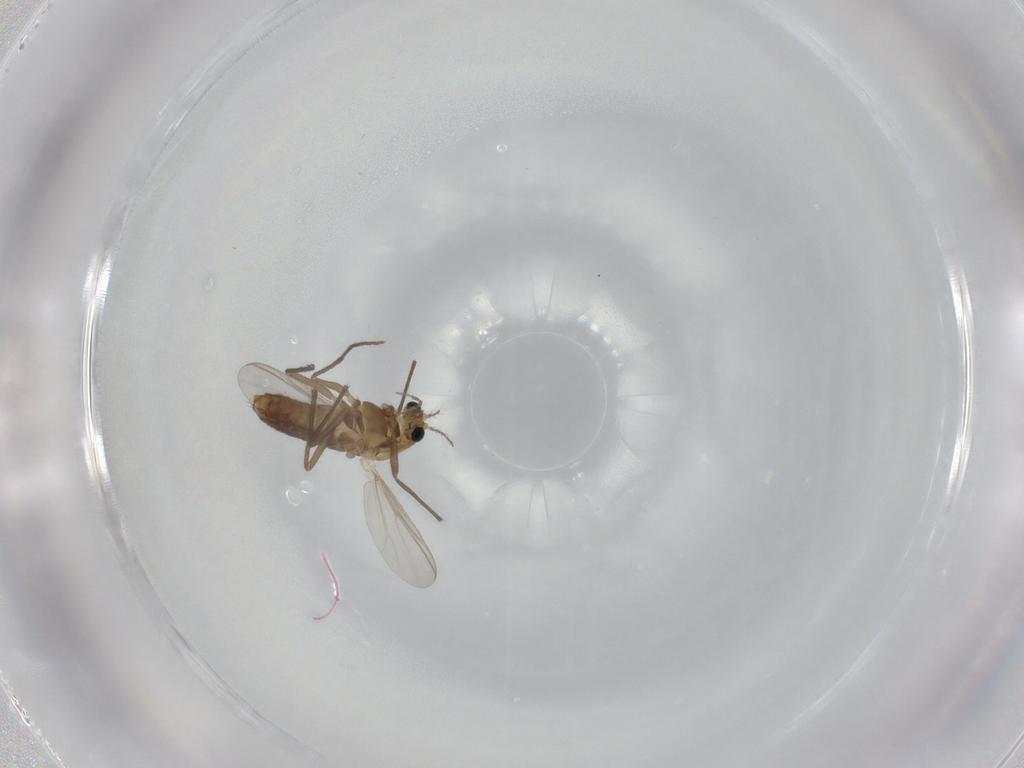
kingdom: Animalia
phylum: Arthropoda
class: Insecta
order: Diptera
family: Chironomidae
